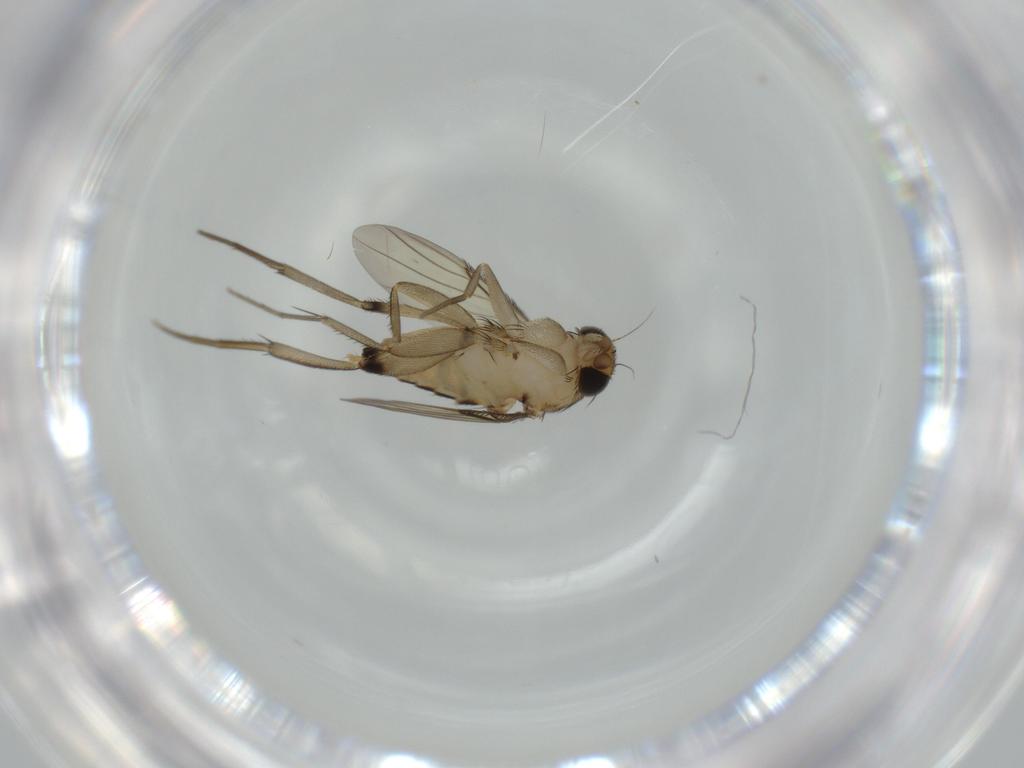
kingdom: Animalia
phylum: Arthropoda
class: Insecta
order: Diptera
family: Phoridae
